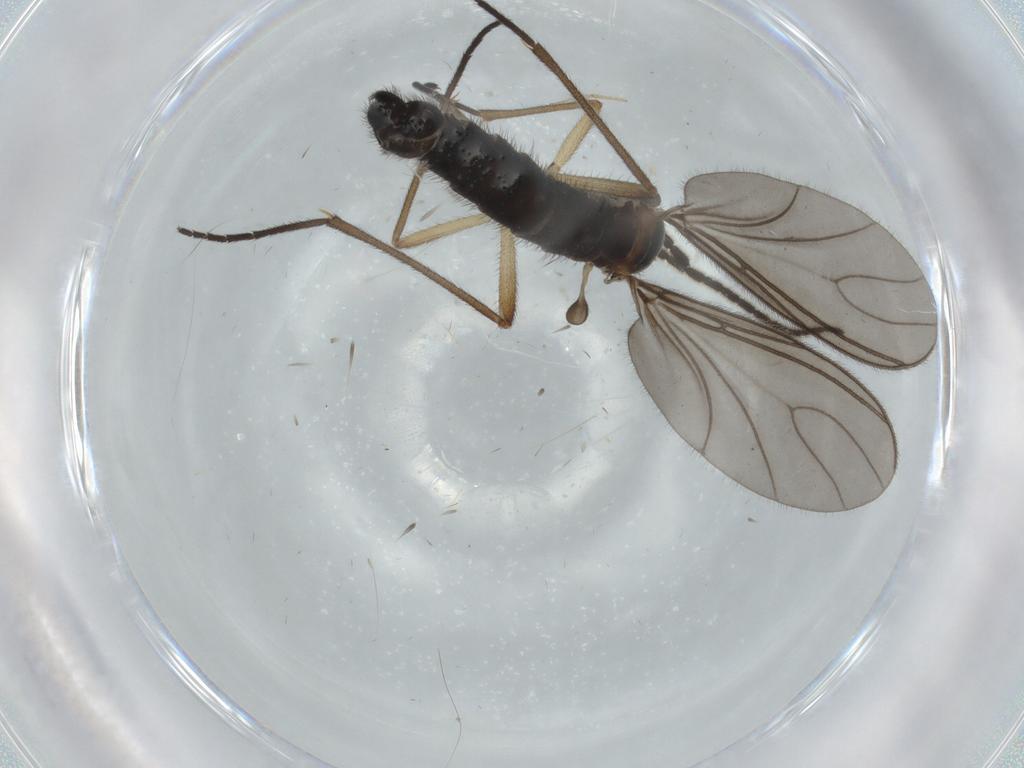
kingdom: Animalia
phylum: Arthropoda
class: Insecta
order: Diptera
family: Sciaridae
